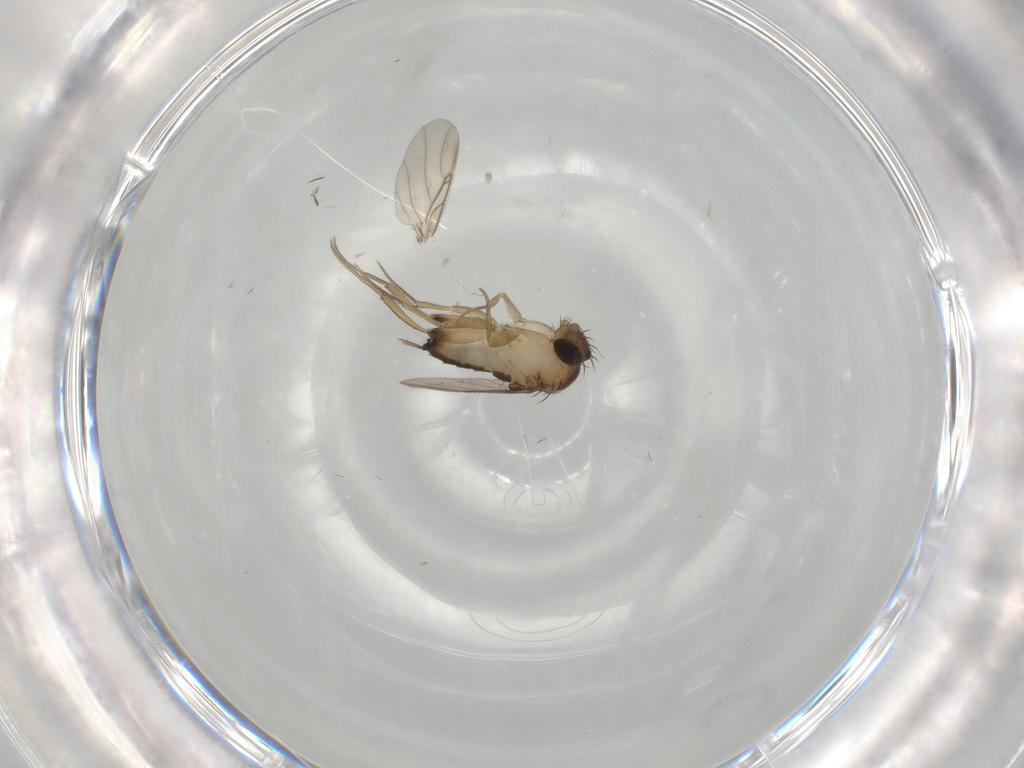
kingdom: Animalia
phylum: Arthropoda
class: Insecta
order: Diptera
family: Phoridae
